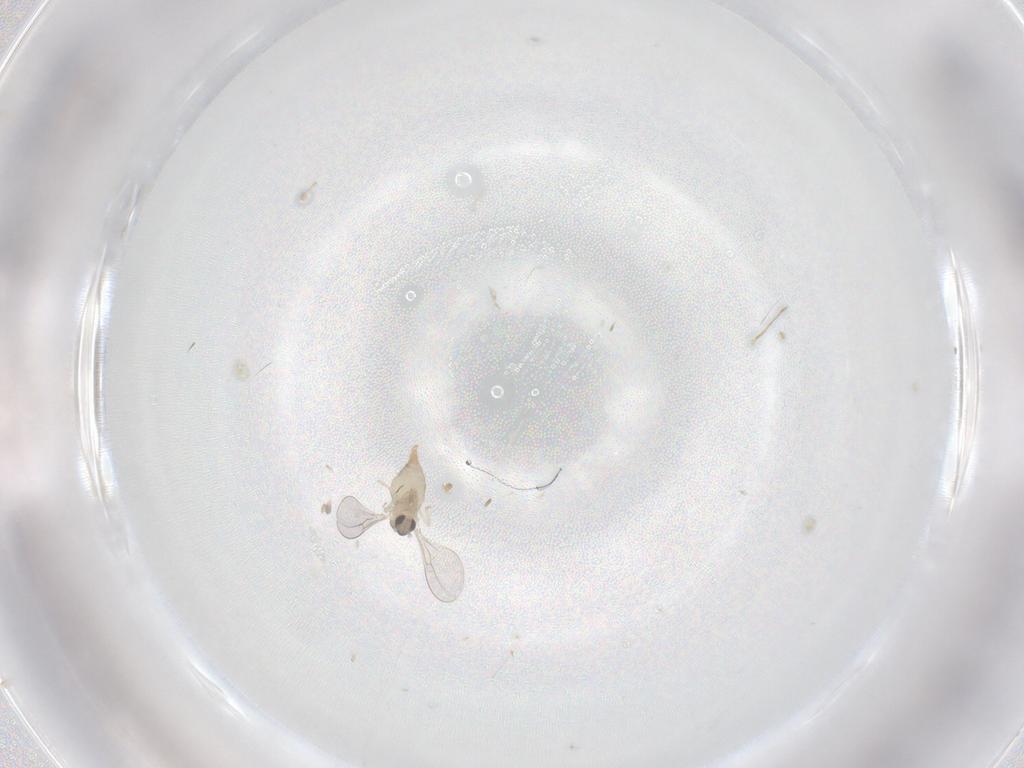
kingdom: Animalia
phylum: Arthropoda
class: Insecta
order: Diptera
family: Cecidomyiidae
